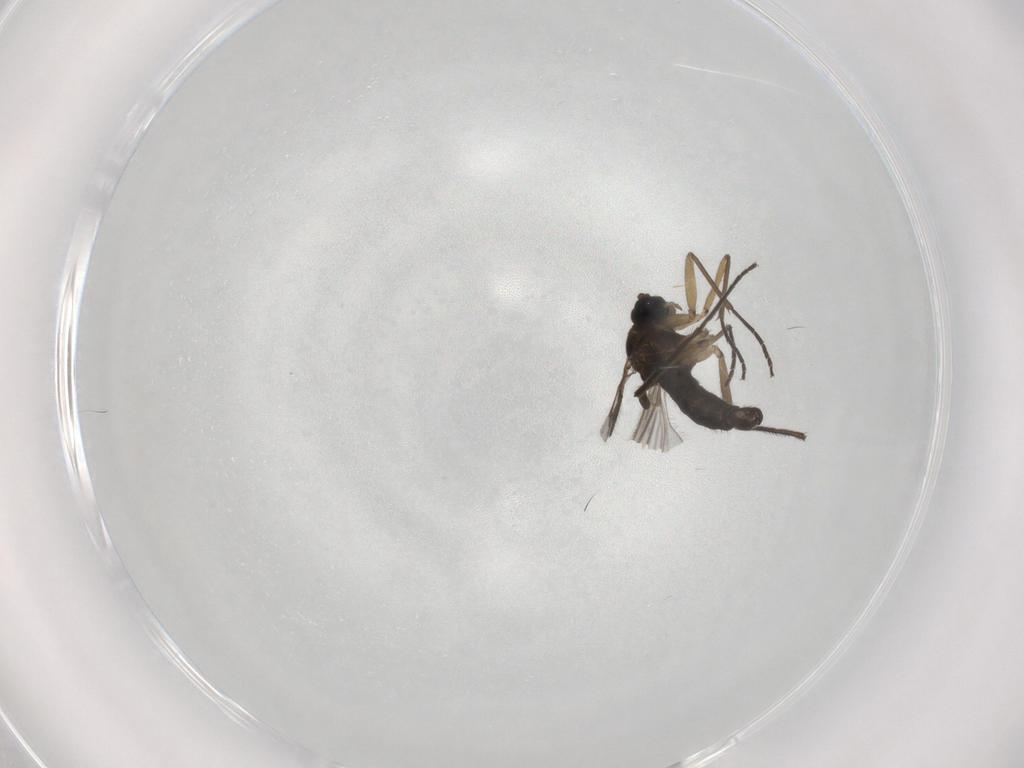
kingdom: Animalia
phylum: Arthropoda
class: Insecta
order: Diptera
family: Sciaridae
